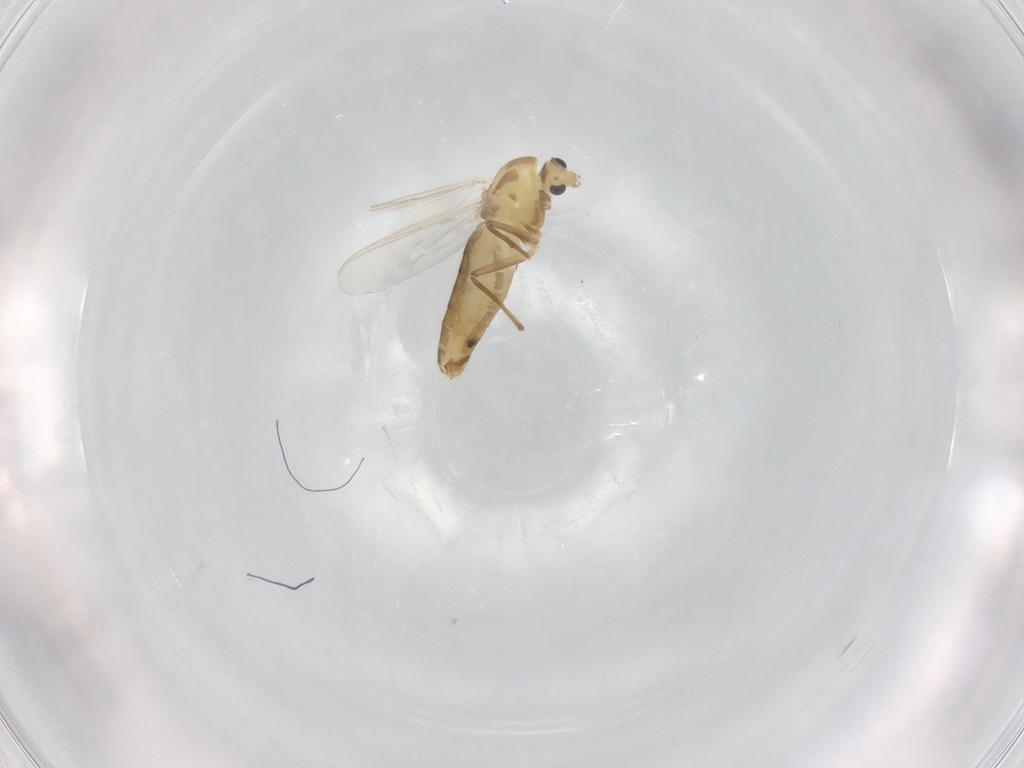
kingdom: Animalia
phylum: Arthropoda
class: Insecta
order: Diptera
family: Chironomidae
